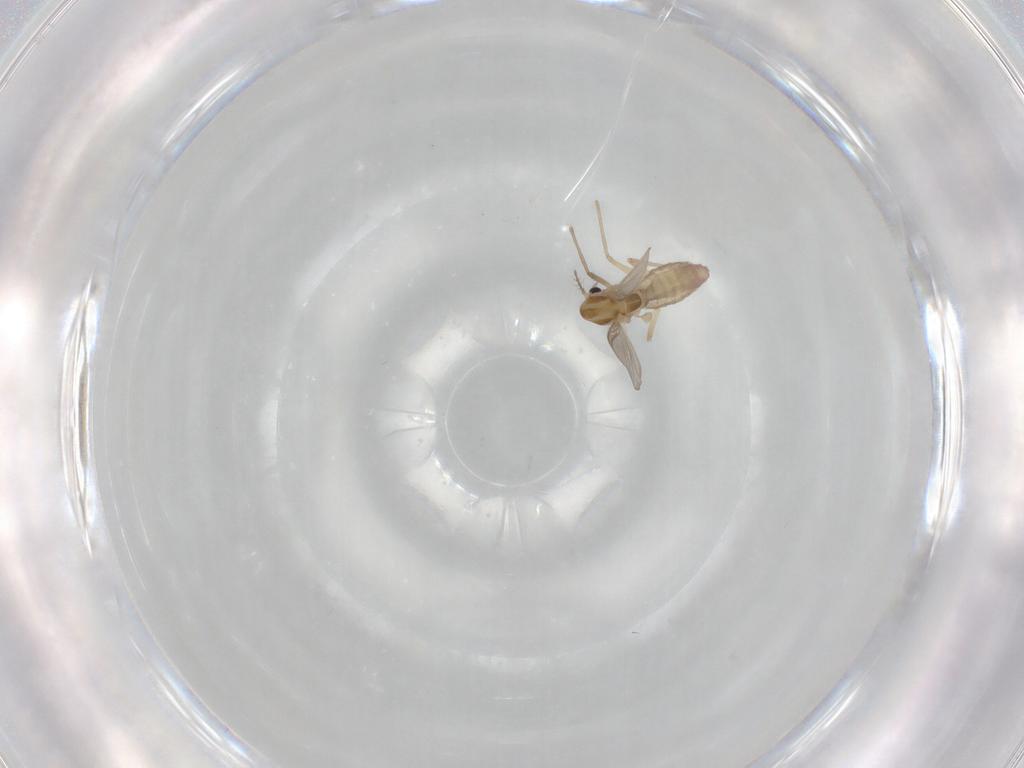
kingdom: Animalia
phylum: Arthropoda
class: Insecta
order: Diptera
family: Chironomidae
